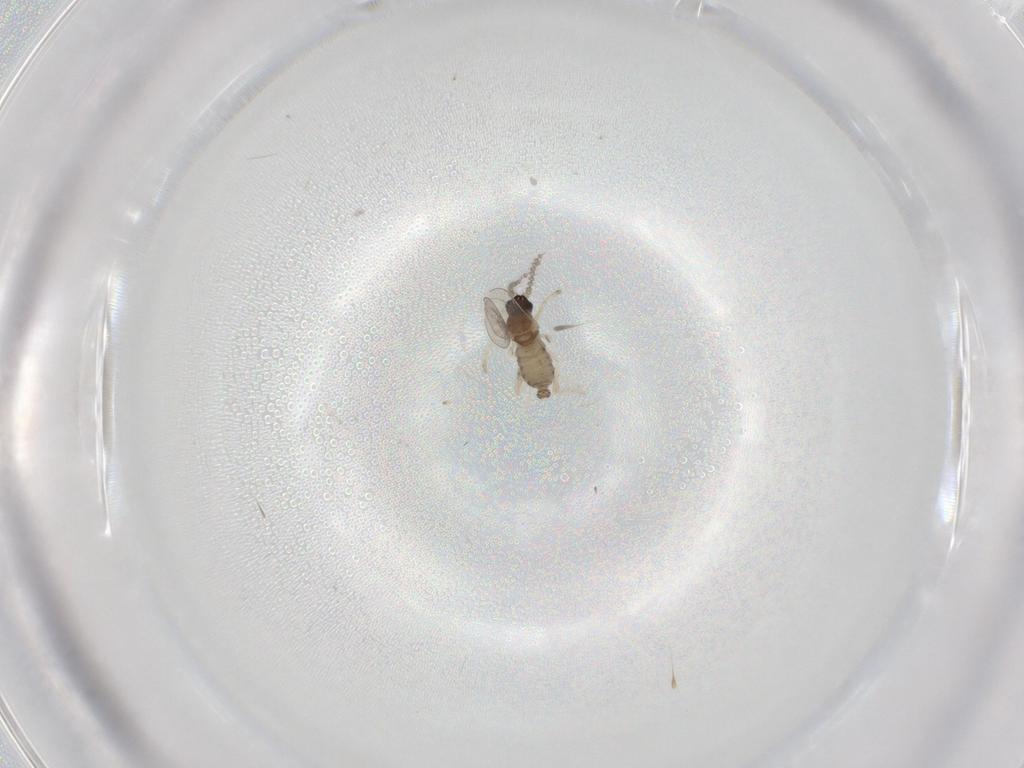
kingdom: Animalia
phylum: Arthropoda
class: Insecta
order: Diptera
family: Cecidomyiidae
